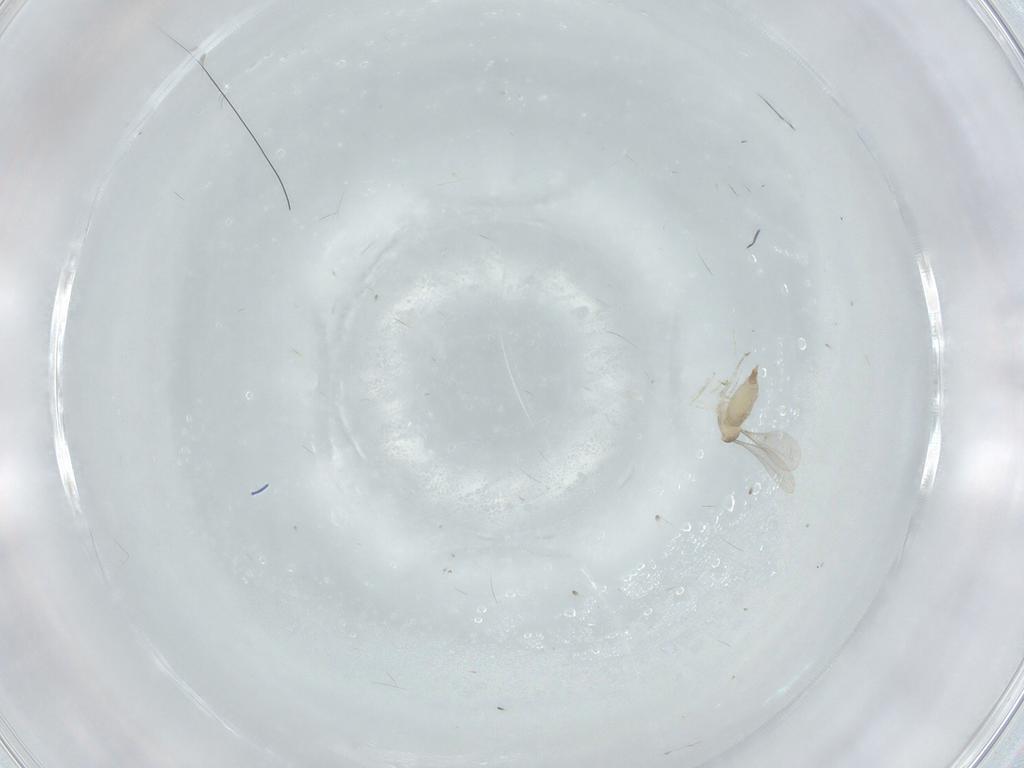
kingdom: Animalia
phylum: Arthropoda
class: Insecta
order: Diptera
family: Cecidomyiidae
